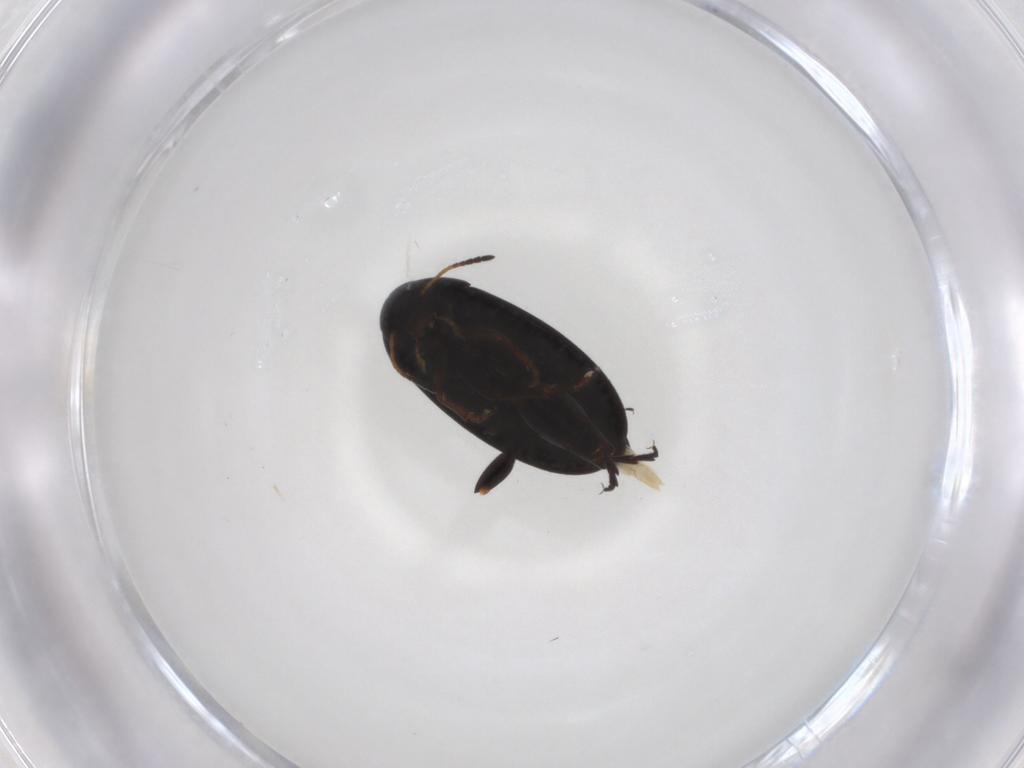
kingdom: Animalia
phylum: Arthropoda
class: Insecta
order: Coleoptera
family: Scraptiidae
